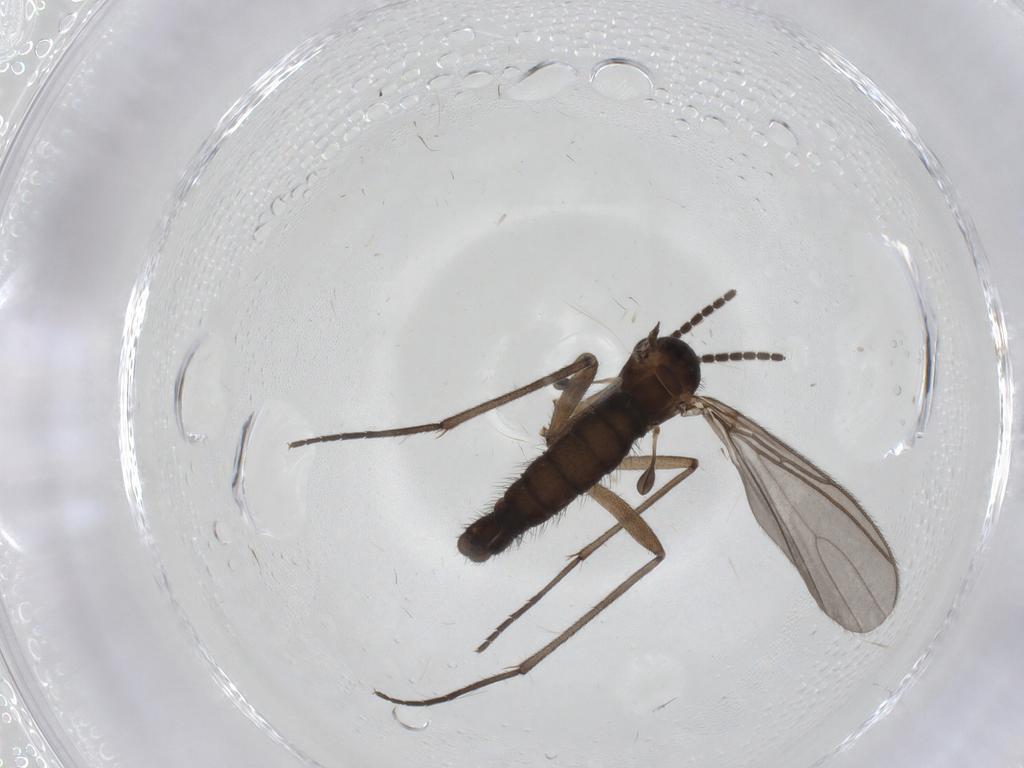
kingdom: Animalia
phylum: Arthropoda
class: Insecta
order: Diptera
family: Sciaridae
